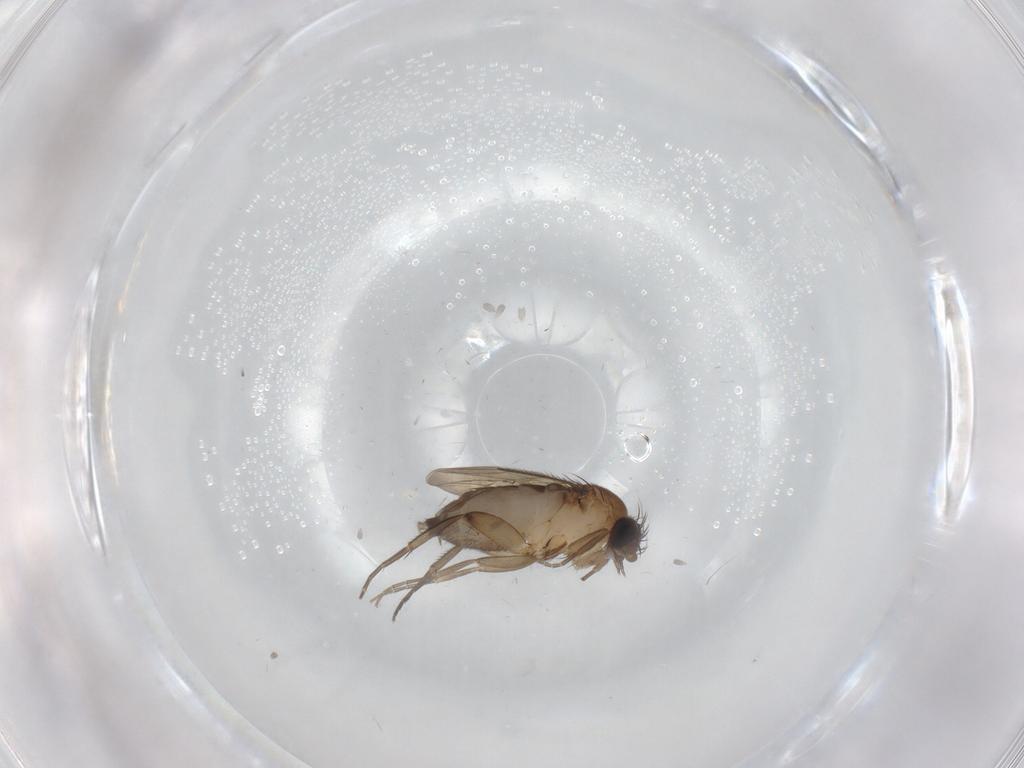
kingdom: Animalia
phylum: Arthropoda
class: Insecta
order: Diptera
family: Phoridae
